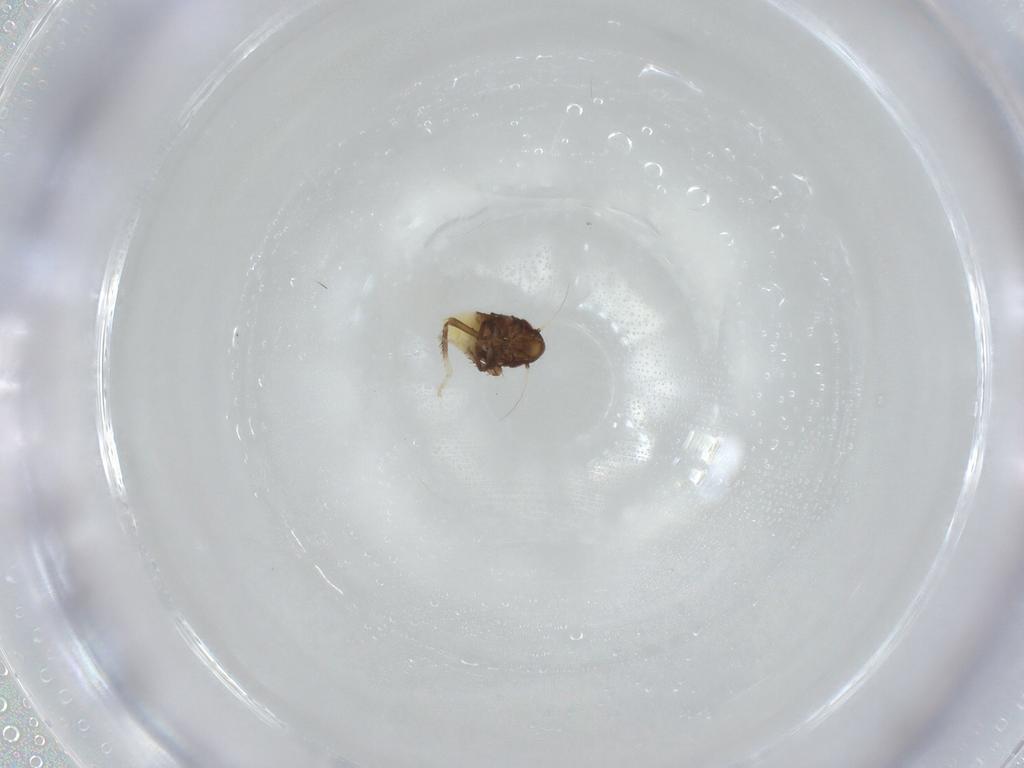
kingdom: Animalia
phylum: Arthropoda
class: Insecta
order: Diptera
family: Pipunculidae
